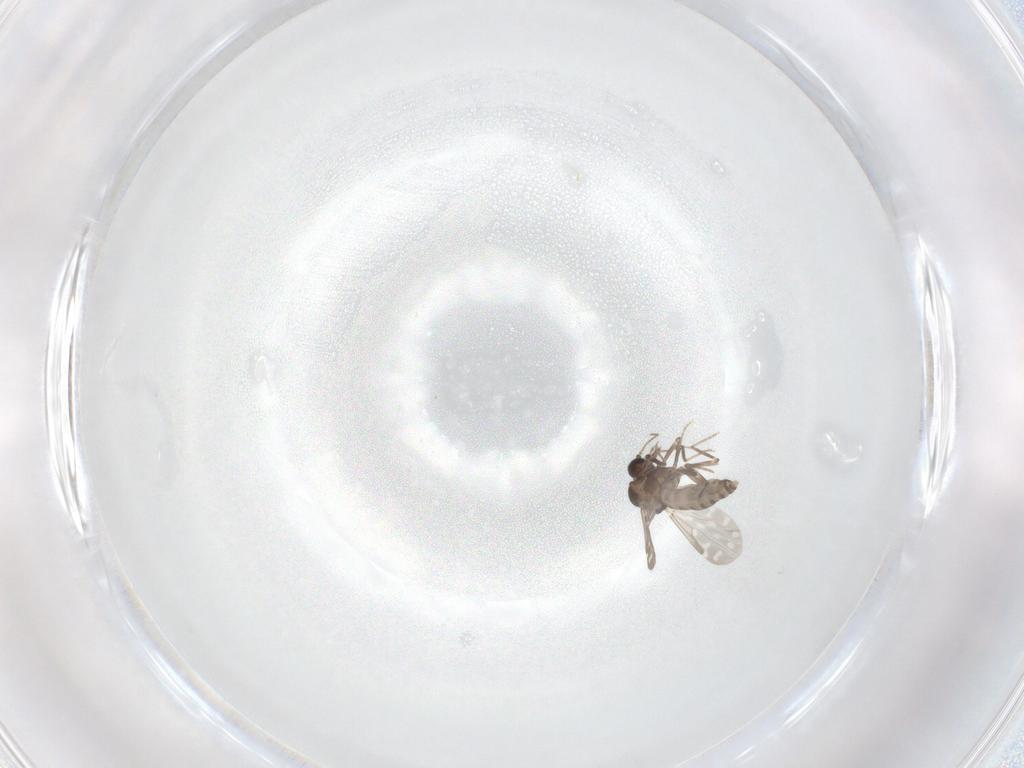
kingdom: Animalia
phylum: Arthropoda
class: Insecta
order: Diptera
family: Ceratopogonidae
